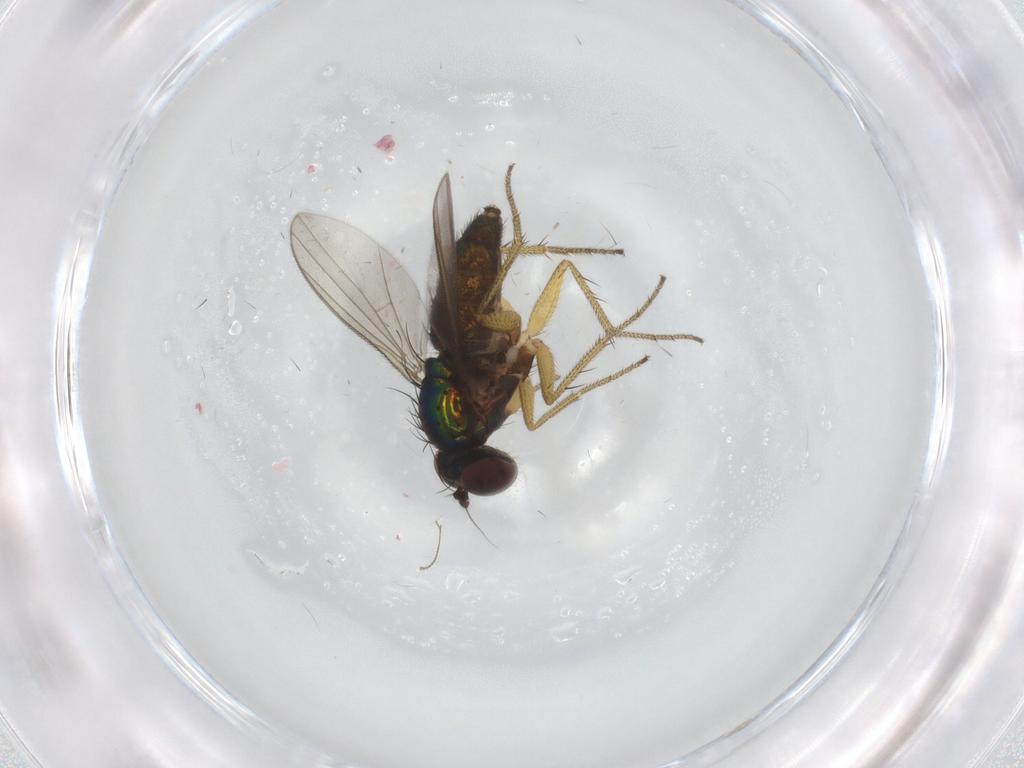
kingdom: Animalia
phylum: Arthropoda
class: Insecta
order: Diptera
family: Dolichopodidae
